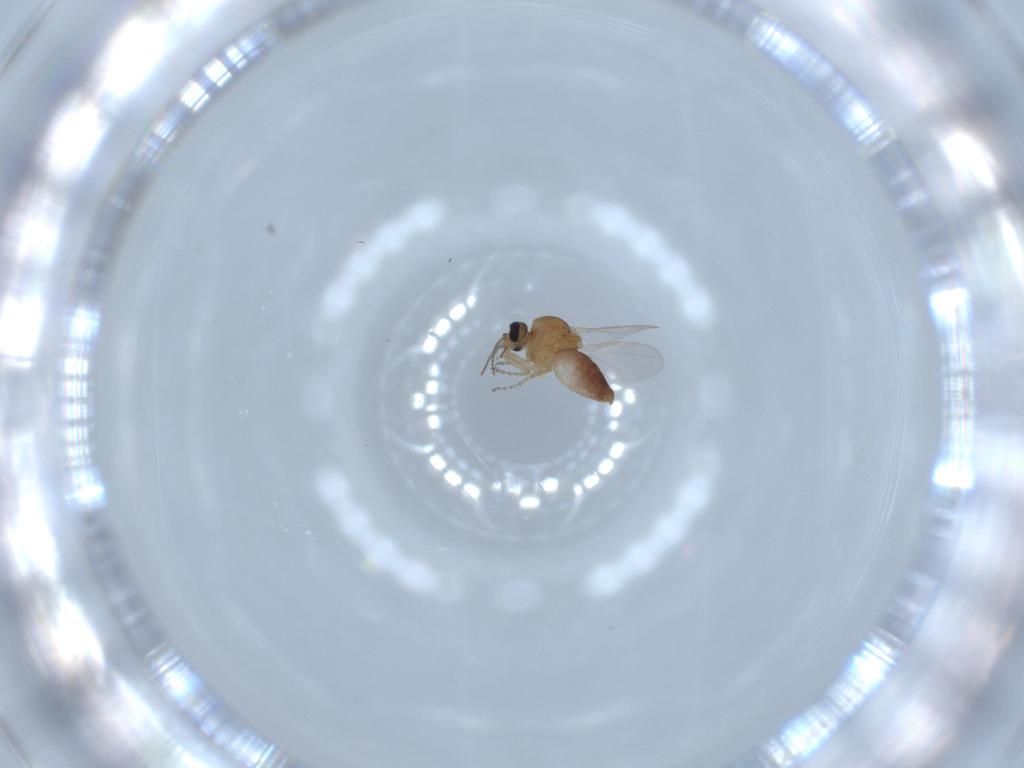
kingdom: Animalia
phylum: Arthropoda
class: Insecta
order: Diptera
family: Ceratopogonidae
